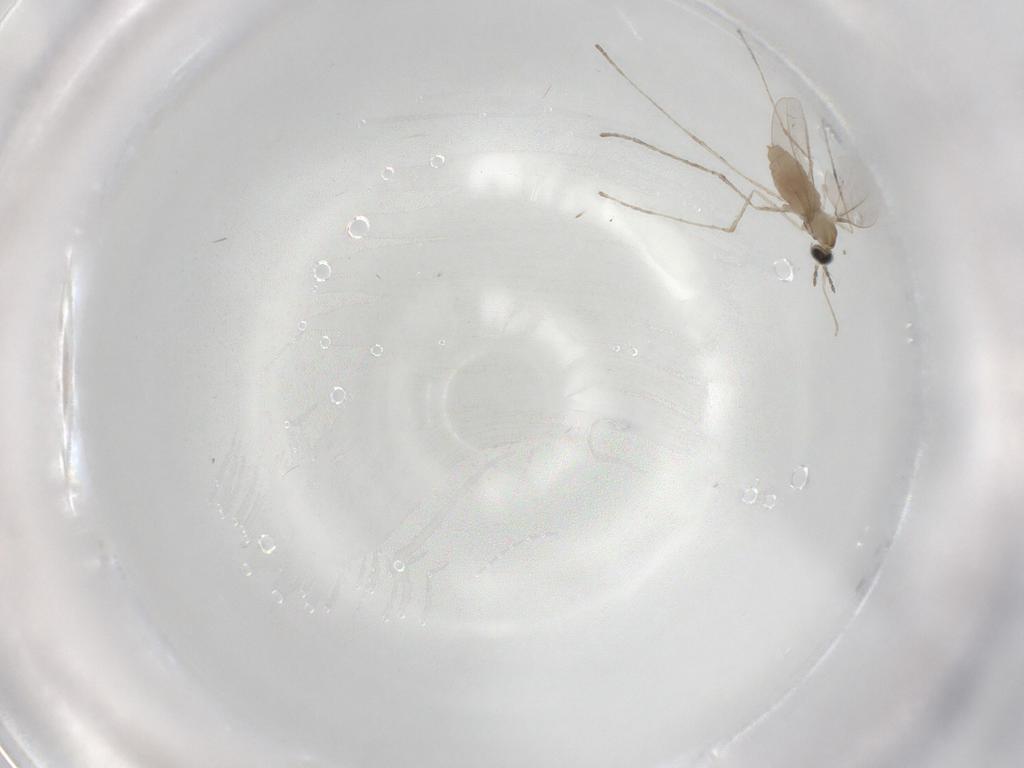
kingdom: Animalia
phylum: Arthropoda
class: Insecta
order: Diptera
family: Cecidomyiidae
